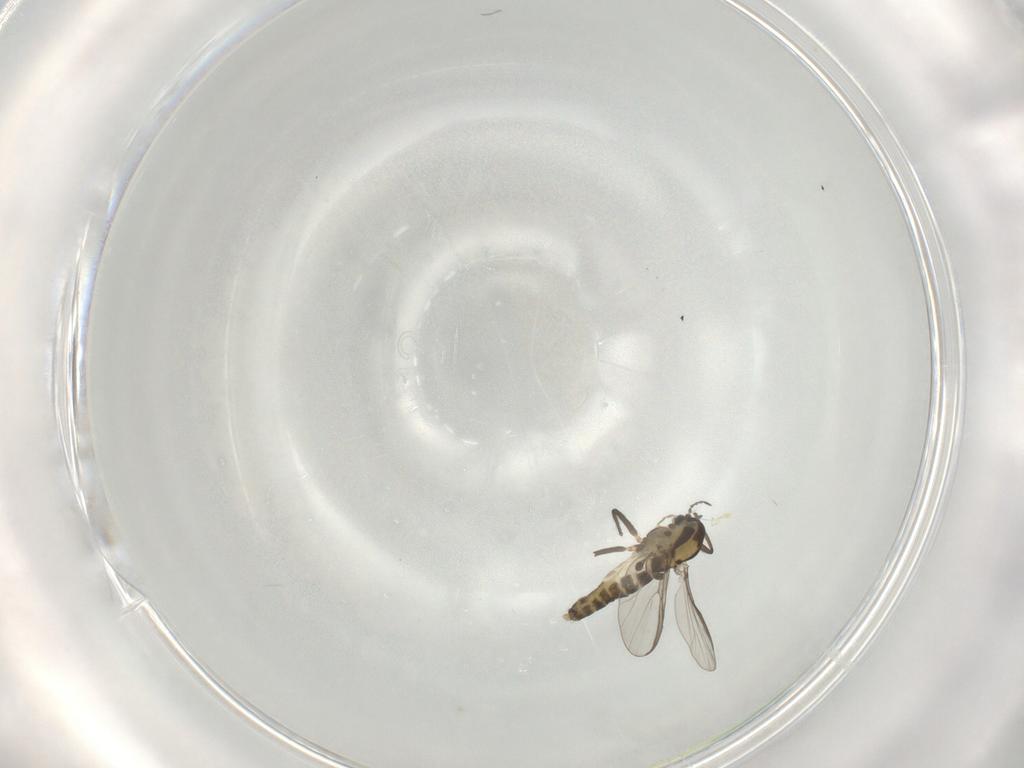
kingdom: Animalia
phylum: Arthropoda
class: Insecta
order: Diptera
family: Chironomidae
